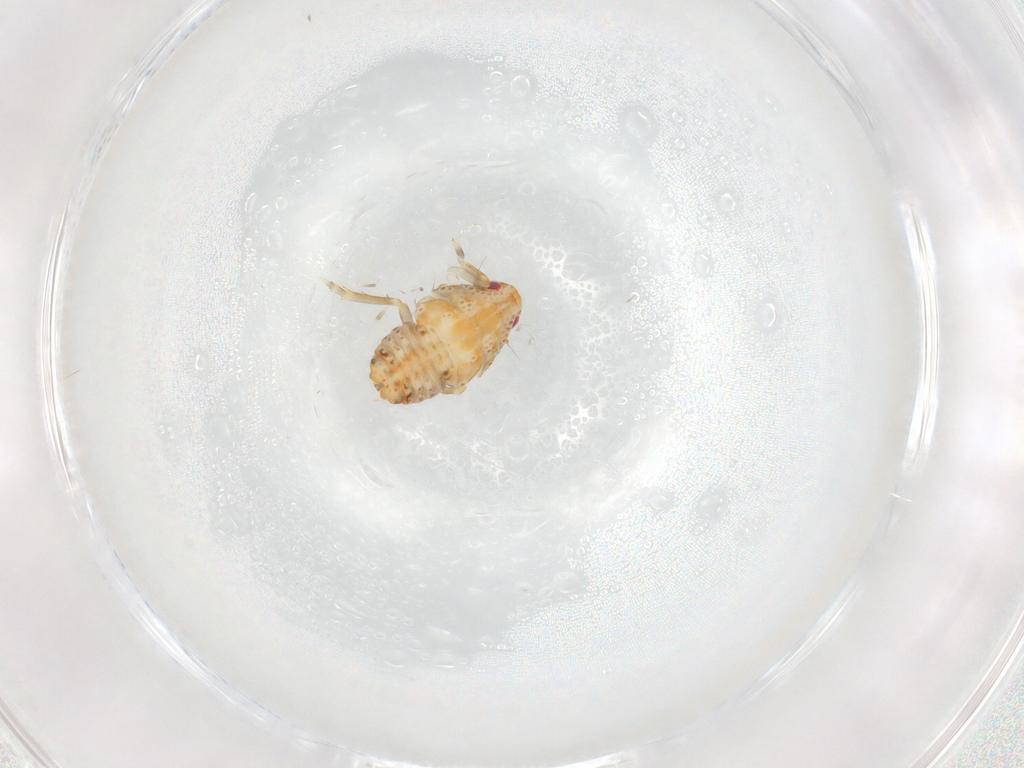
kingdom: Animalia
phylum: Arthropoda
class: Insecta
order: Hemiptera
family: Flatidae
